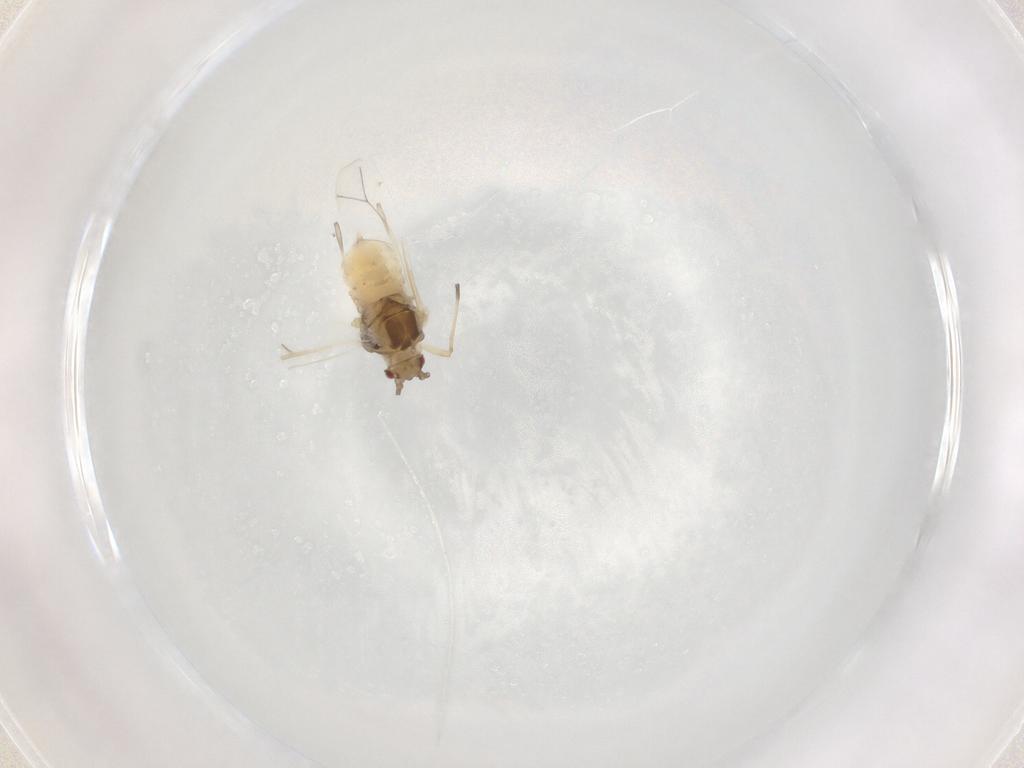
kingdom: Animalia
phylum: Arthropoda
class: Insecta
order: Hemiptera
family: Aphididae
